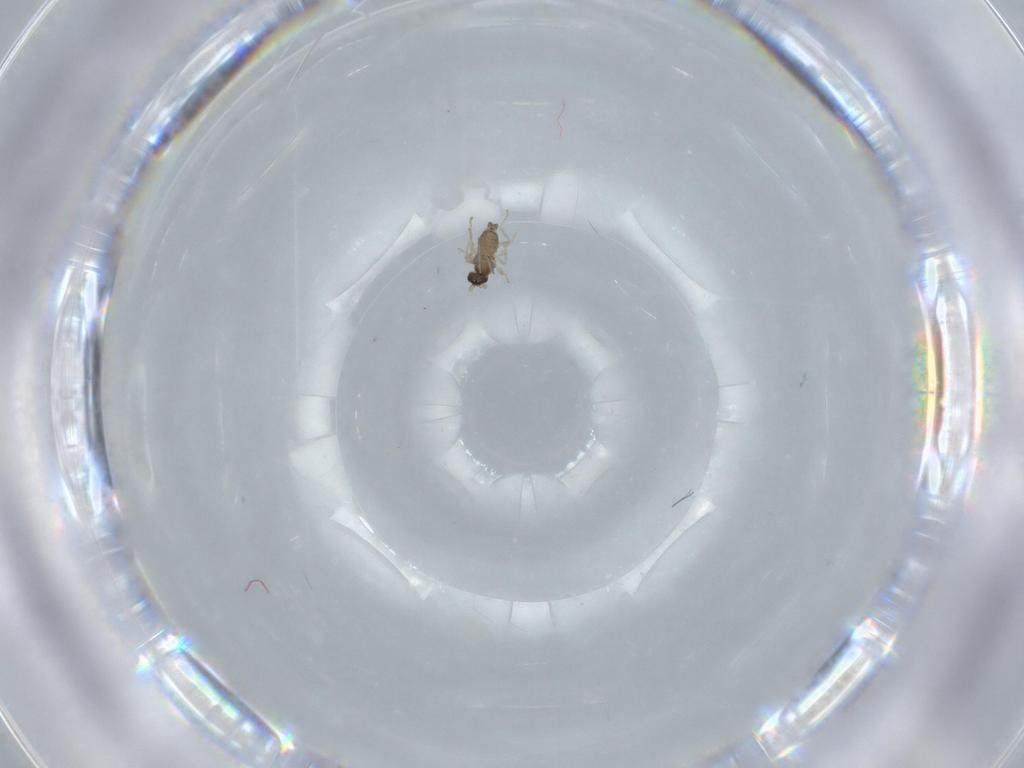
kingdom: Animalia
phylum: Arthropoda
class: Insecta
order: Diptera
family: Cecidomyiidae
